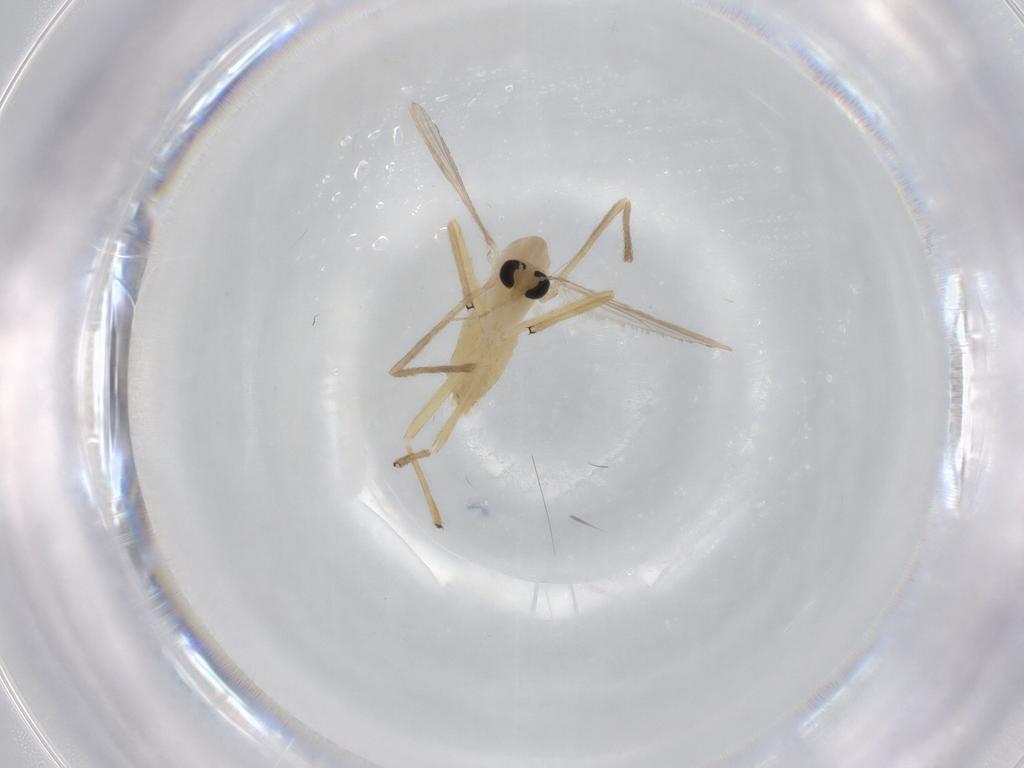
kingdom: Animalia
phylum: Arthropoda
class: Insecta
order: Diptera
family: Chironomidae
